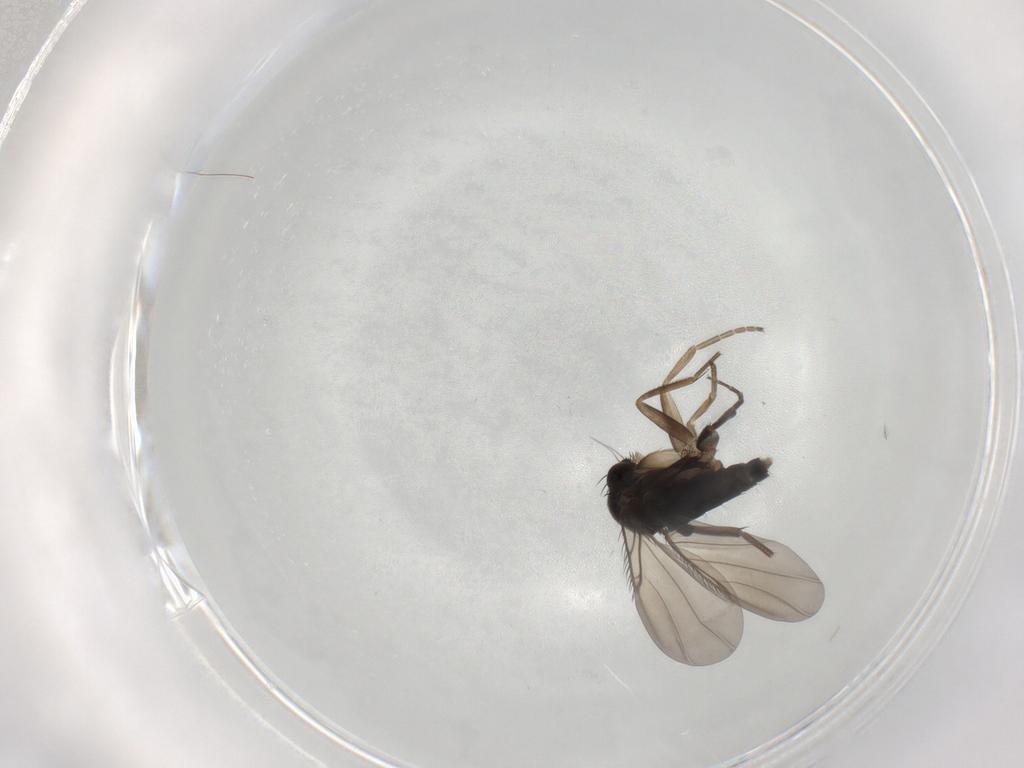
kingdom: Animalia
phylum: Arthropoda
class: Insecta
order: Diptera
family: Phoridae
